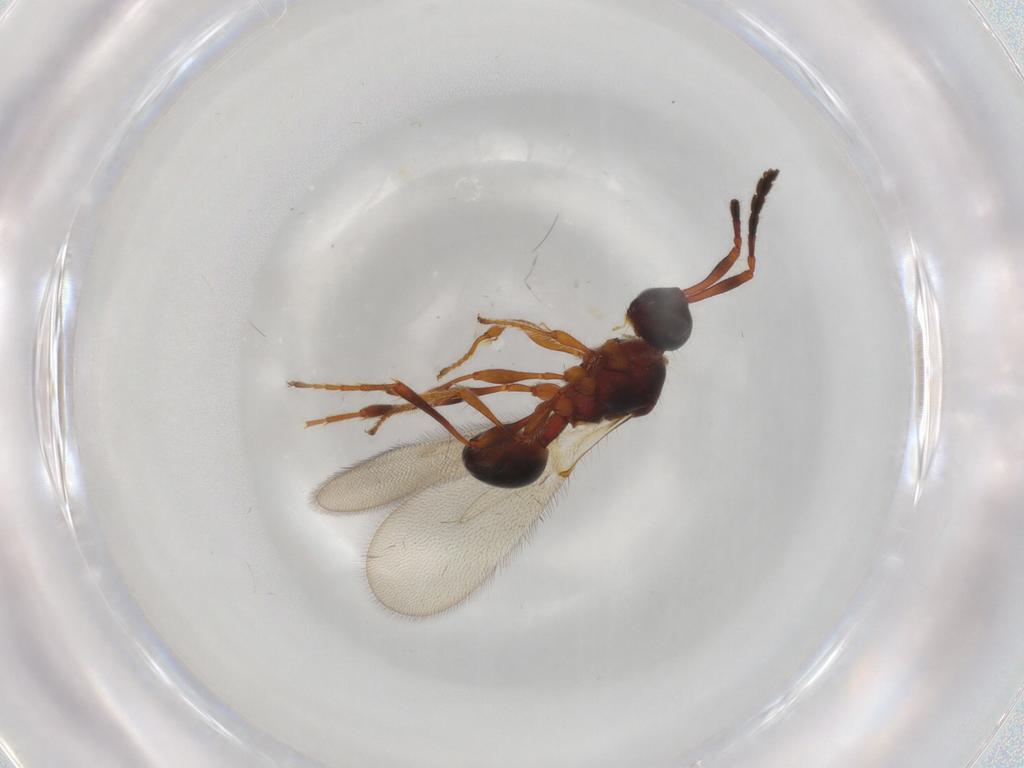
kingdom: Animalia
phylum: Arthropoda
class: Insecta
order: Hymenoptera
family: Diapriidae
